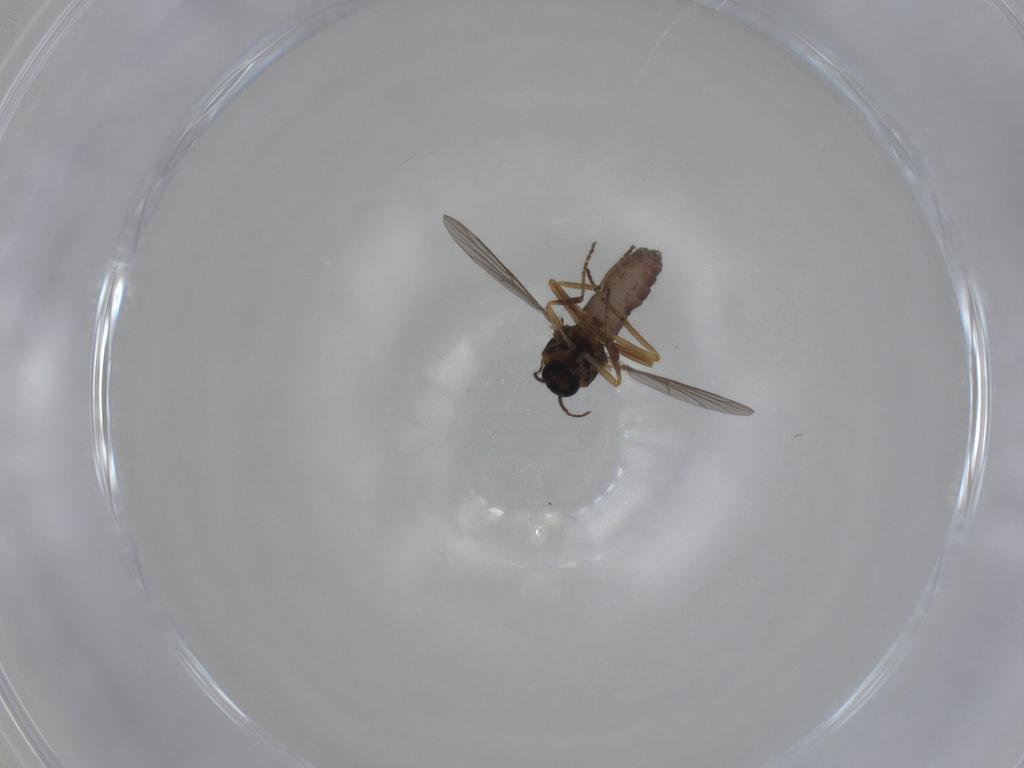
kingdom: Animalia
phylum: Arthropoda
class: Insecta
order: Diptera
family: Ceratopogonidae
